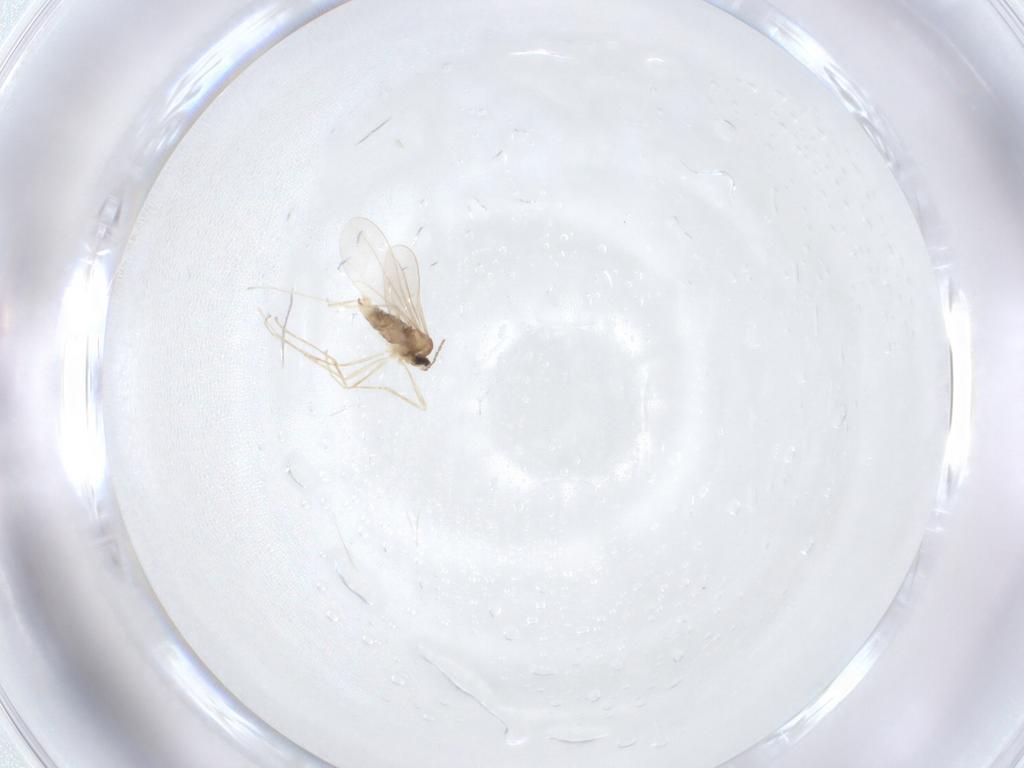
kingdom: Animalia
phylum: Arthropoda
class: Insecta
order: Diptera
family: Cecidomyiidae
